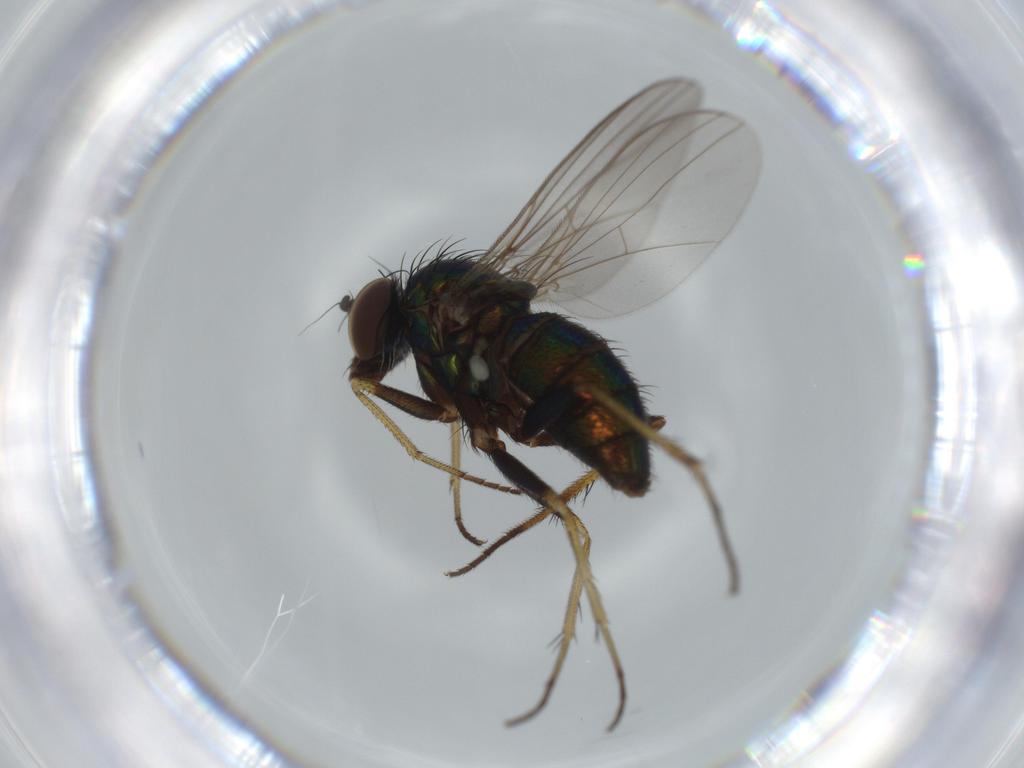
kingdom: Animalia
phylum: Arthropoda
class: Insecta
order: Diptera
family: Dolichopodidae
